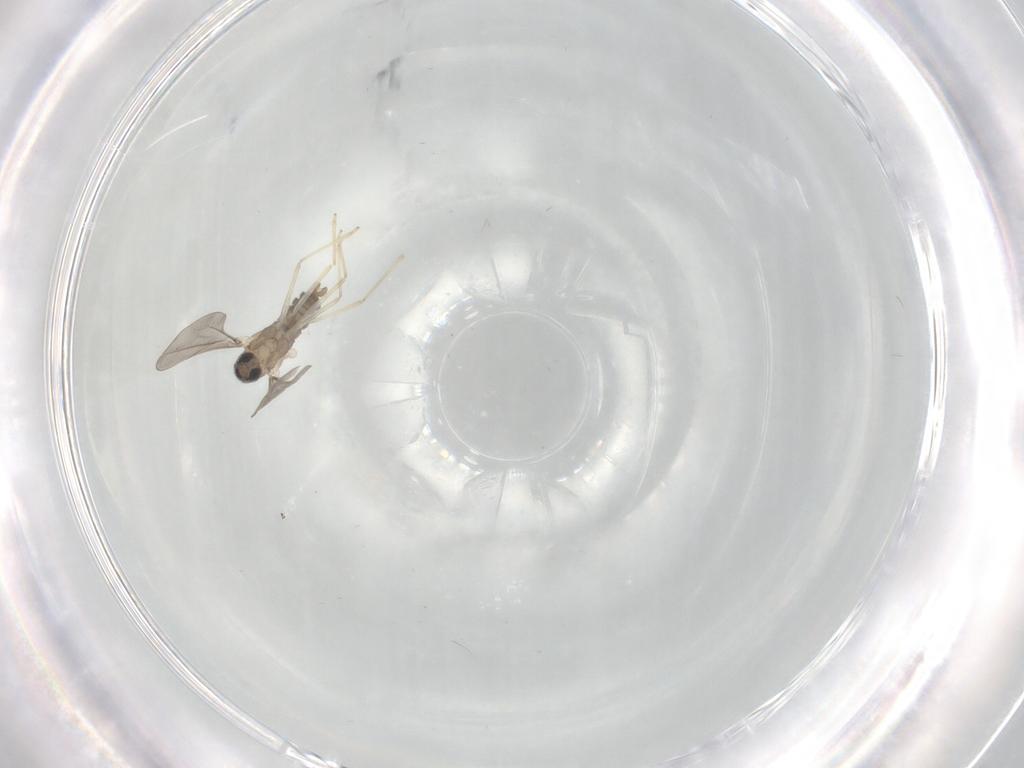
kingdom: Animalia
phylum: Arthropoda
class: Insecta
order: Diptera
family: Phoridae
